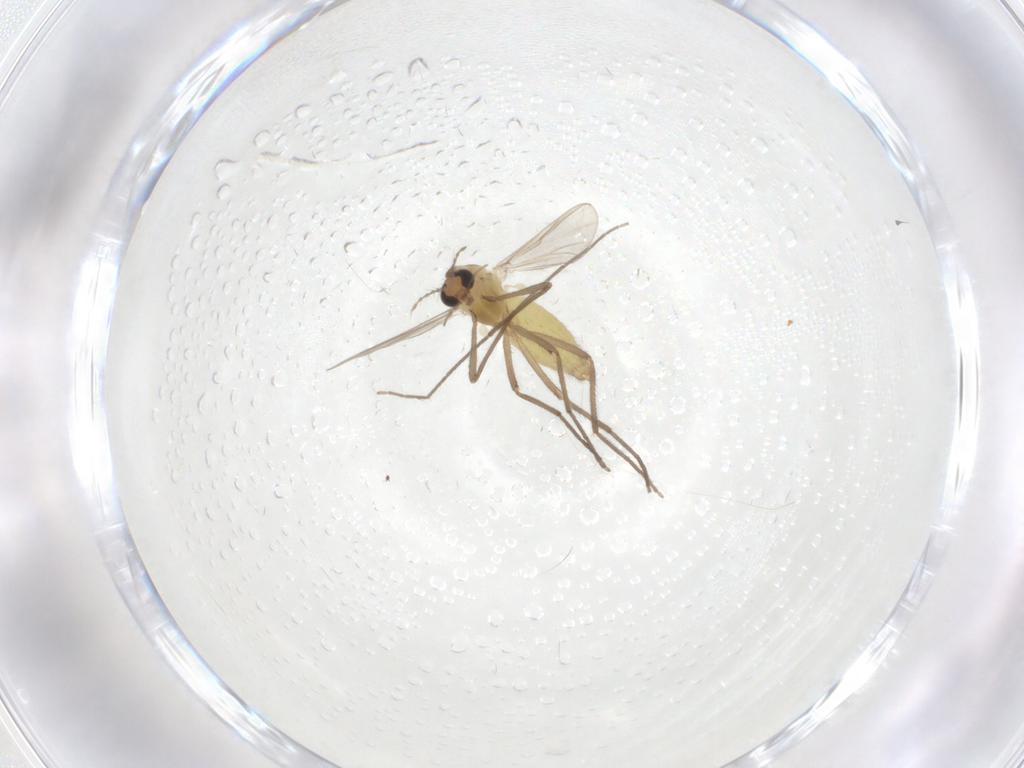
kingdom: Animalia
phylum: Arthropoda
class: Insecta
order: Diptera
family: Chironomidae
